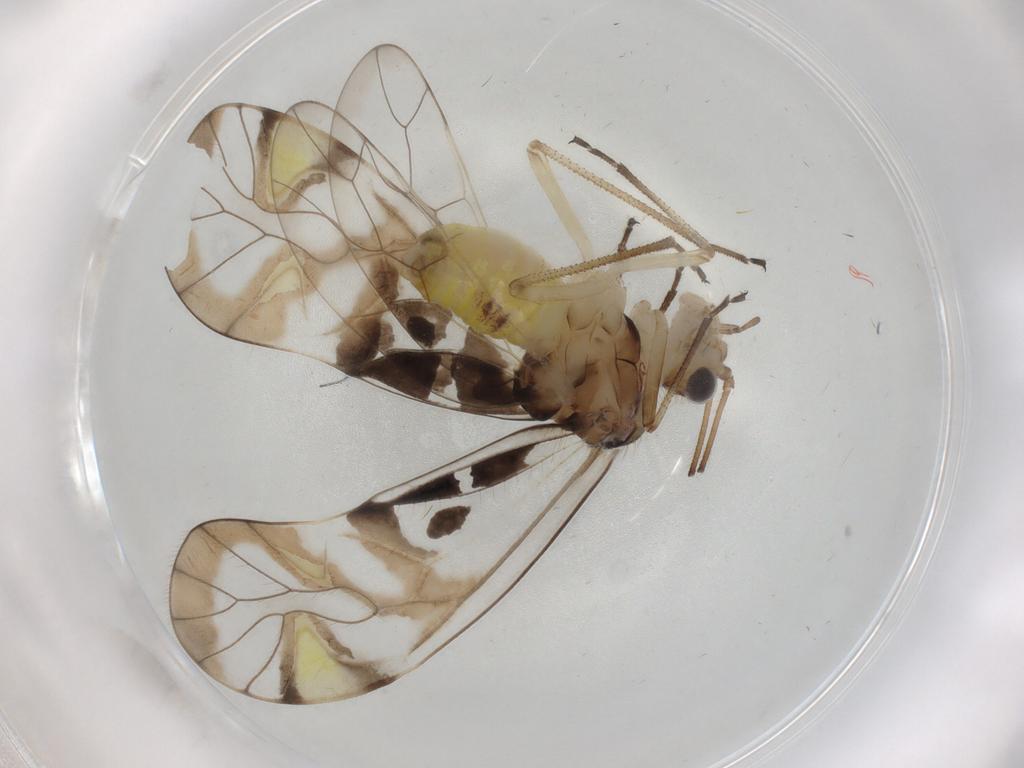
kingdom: Animalia
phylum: Arthropoda
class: Insecta
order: Psocodea
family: Amphipsocidae
